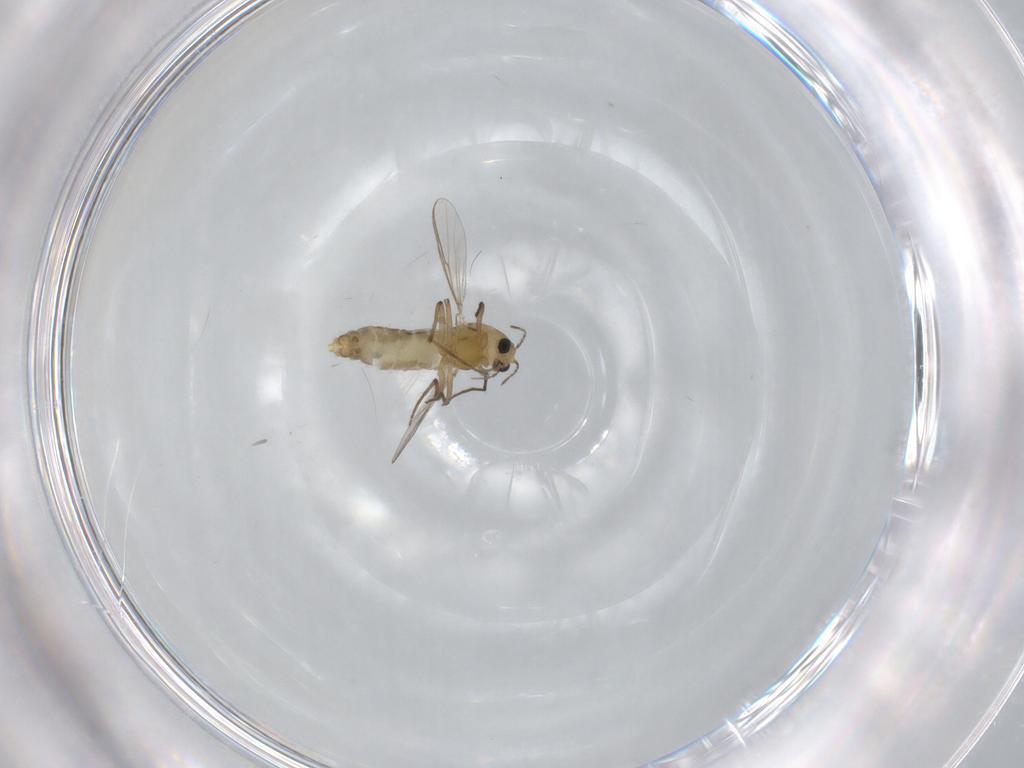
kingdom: Animalia
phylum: Arthropoda
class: Insecta
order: Diptera
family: Chironomidae
